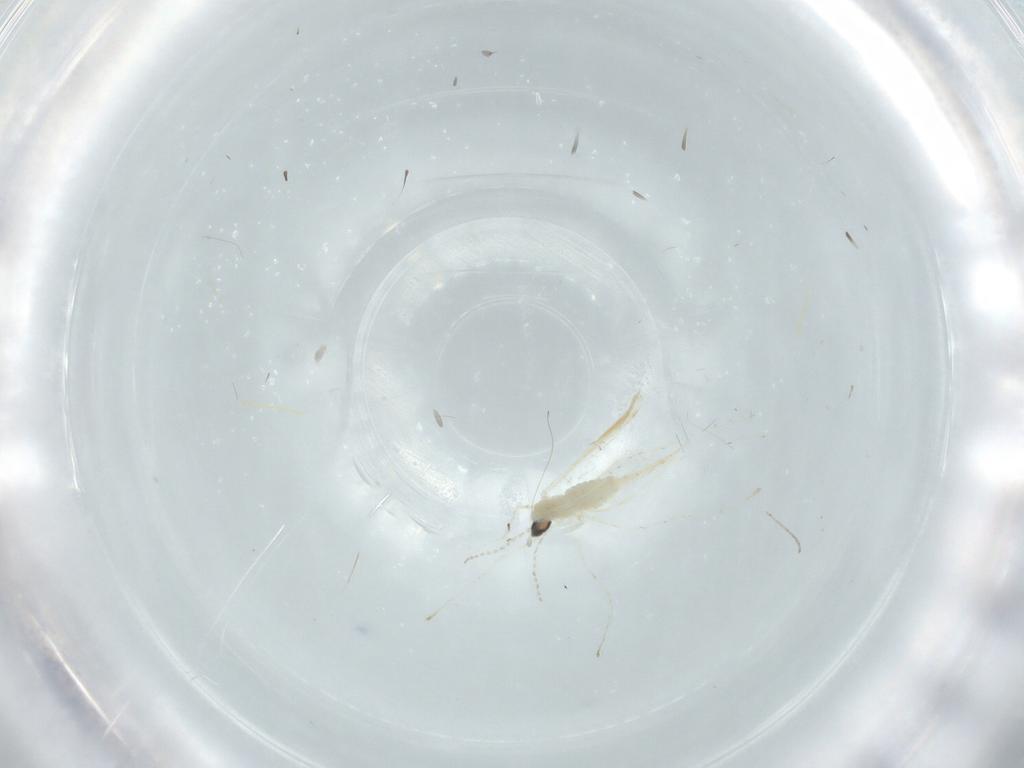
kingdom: Animalia
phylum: Arthropoda
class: Insecta
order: Diptera
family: Cecidomyiidae
